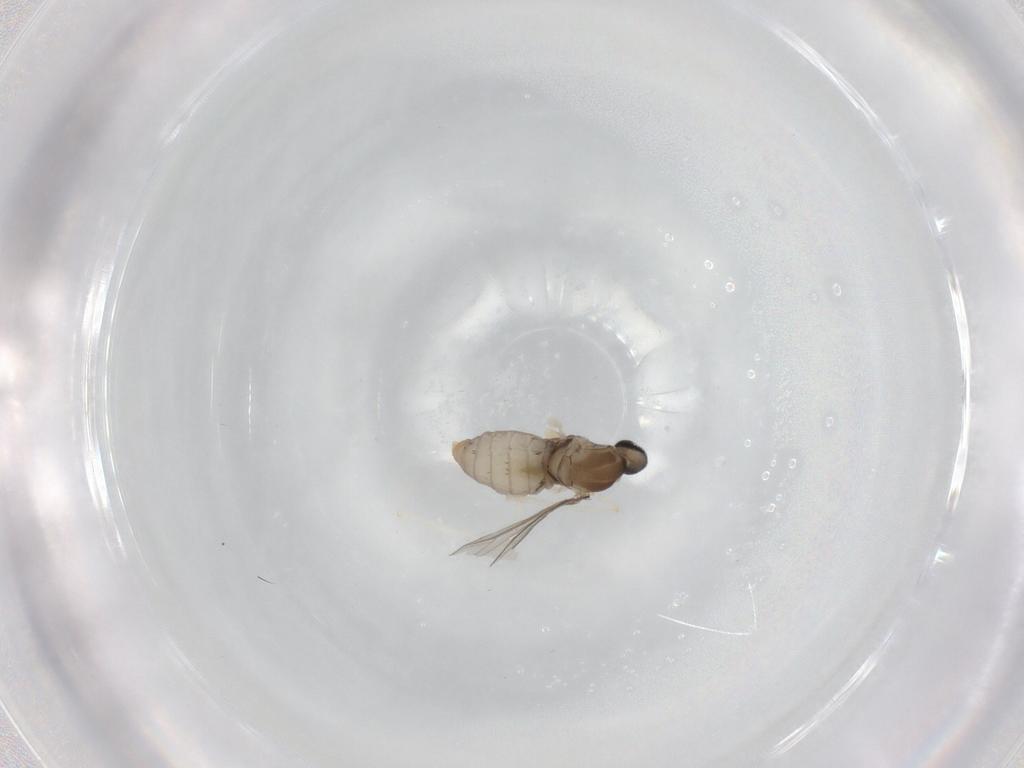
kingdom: Animalia
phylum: Arthropoda
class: Insecta
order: Diptera
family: Cecidomyiidae
